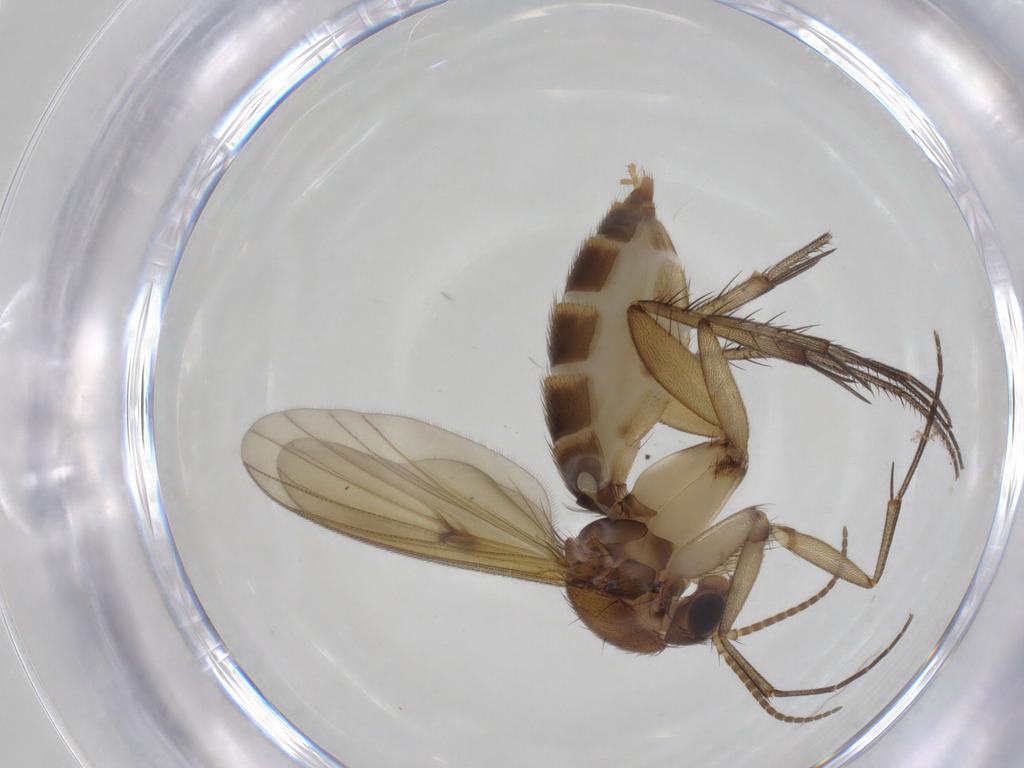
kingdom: Animalia
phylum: Arthropoda
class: Insecta
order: Diptera
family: Mycetophilidae
